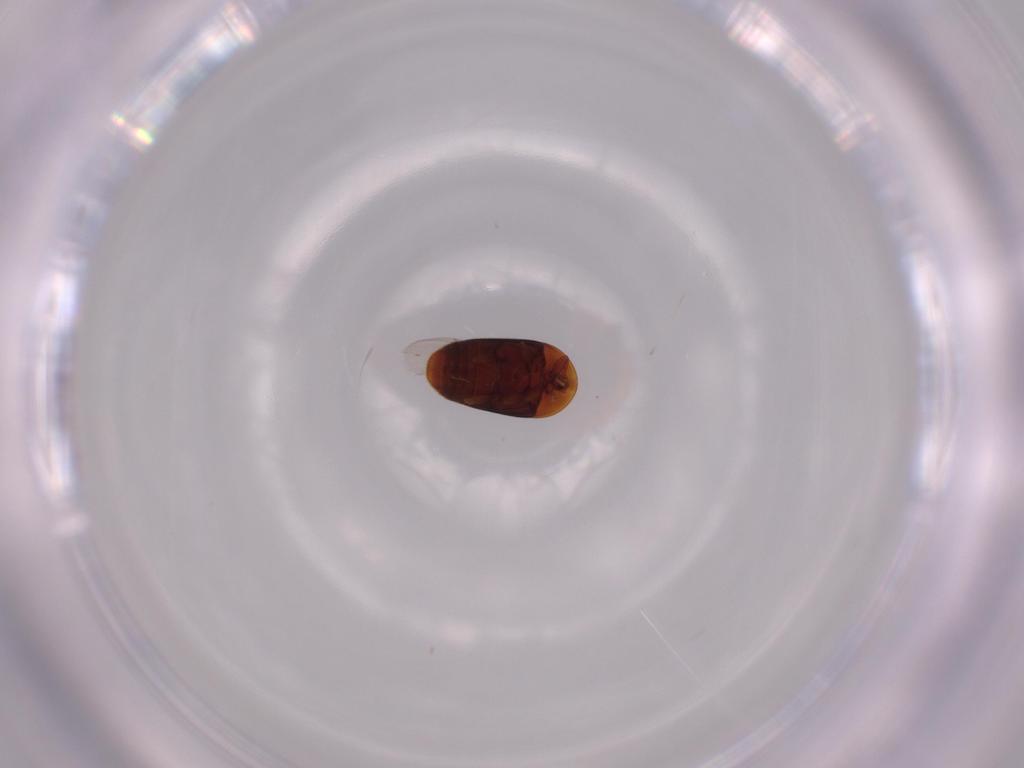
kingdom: Animalia
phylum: Arthropoda
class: Insecta
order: Coleoptera
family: Corylophidae
